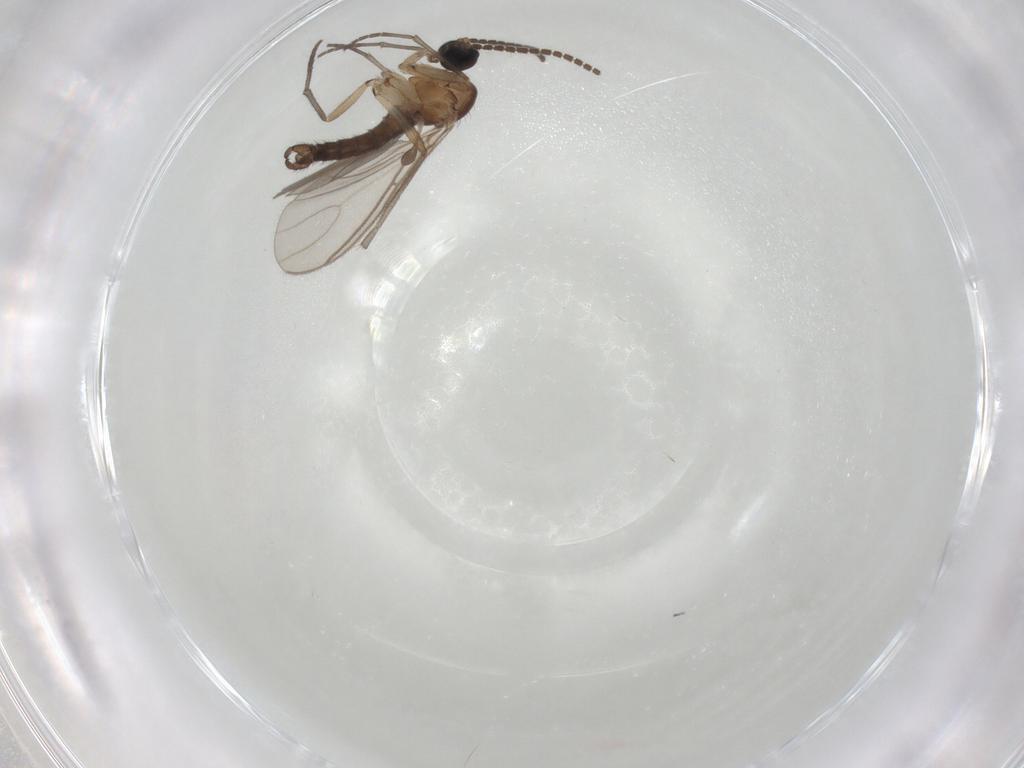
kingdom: Animalia
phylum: Arthropoda
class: Insecta
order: Diptera
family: Sciaridae
